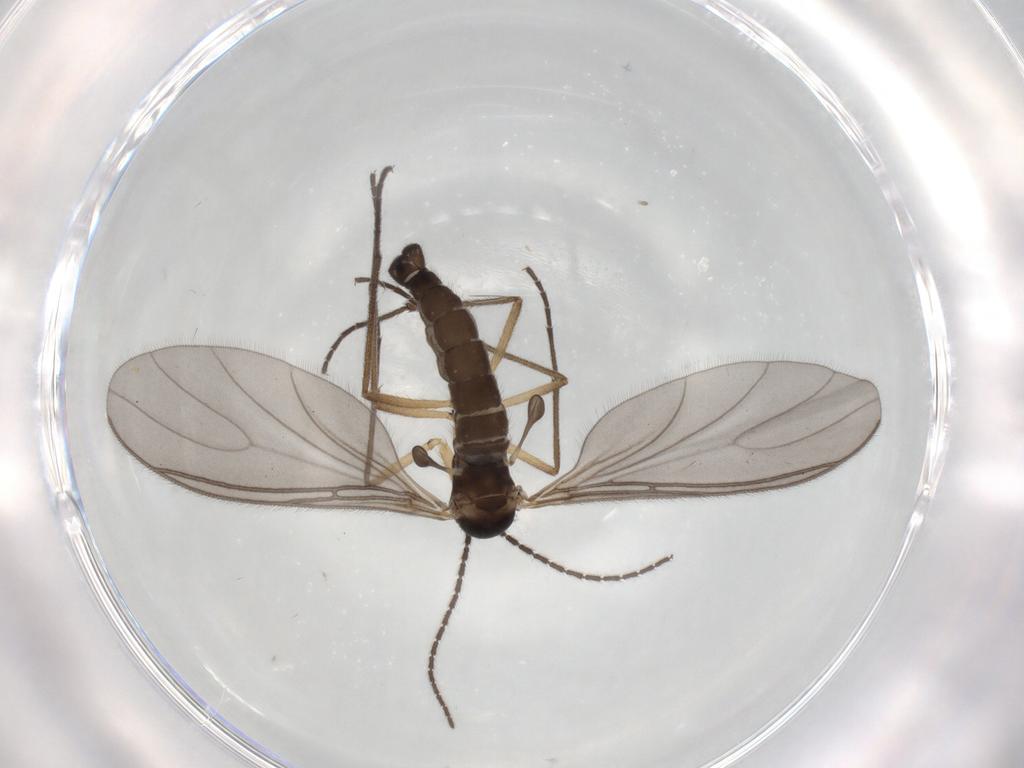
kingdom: Animalia
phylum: Arthropoda
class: Insecta
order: Diptera
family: Sciaridae
